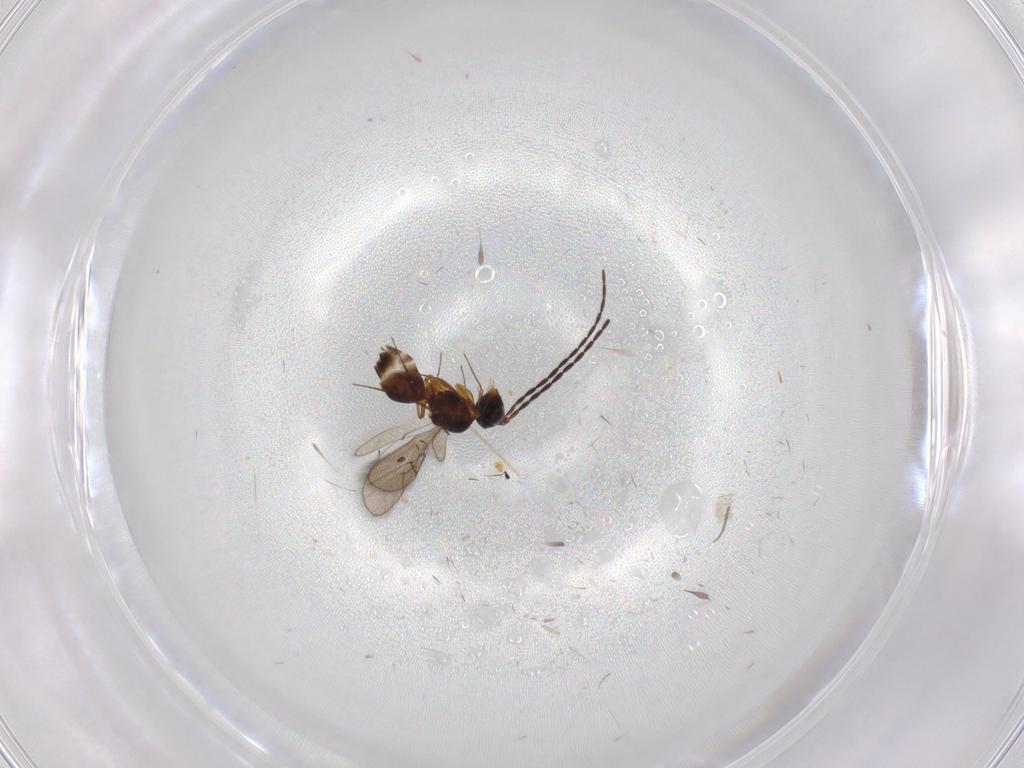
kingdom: Animalia
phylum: Arthropoda
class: Insecta
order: Hymenoptera
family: Figitidae
